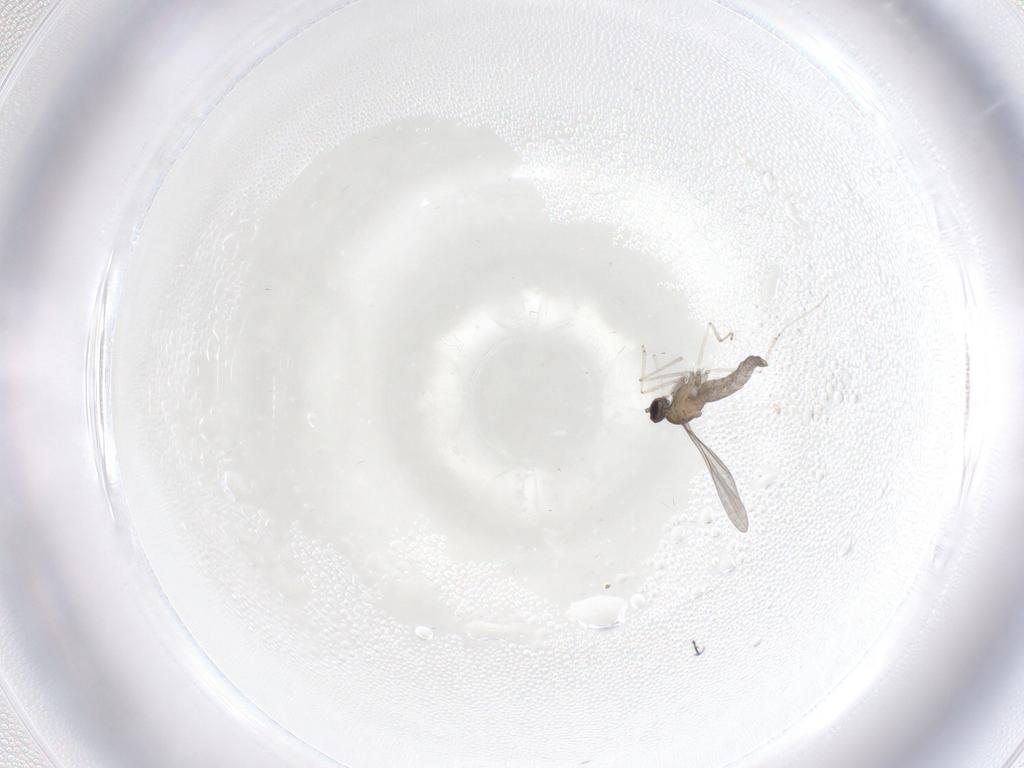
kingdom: Animalia
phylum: Arthropoda
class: Insecta
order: Diptera
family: Cecidomyiidae
